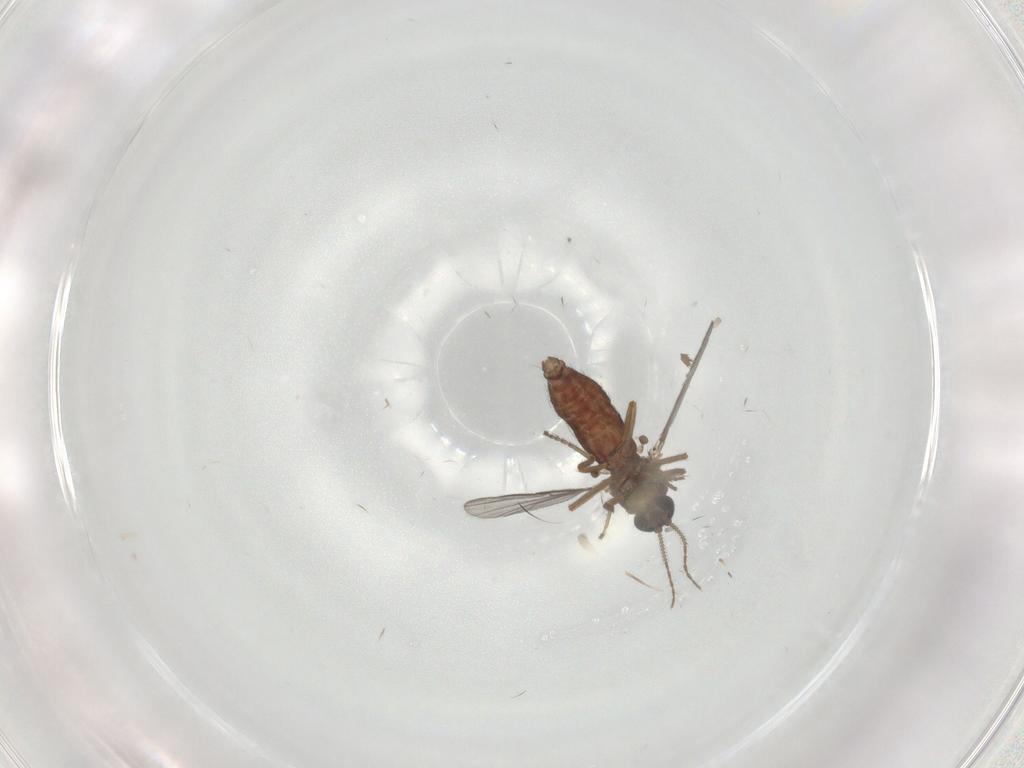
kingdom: Animalia
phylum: Arthropoda
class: Insecta
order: Diptera
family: Ceratopogonidae
